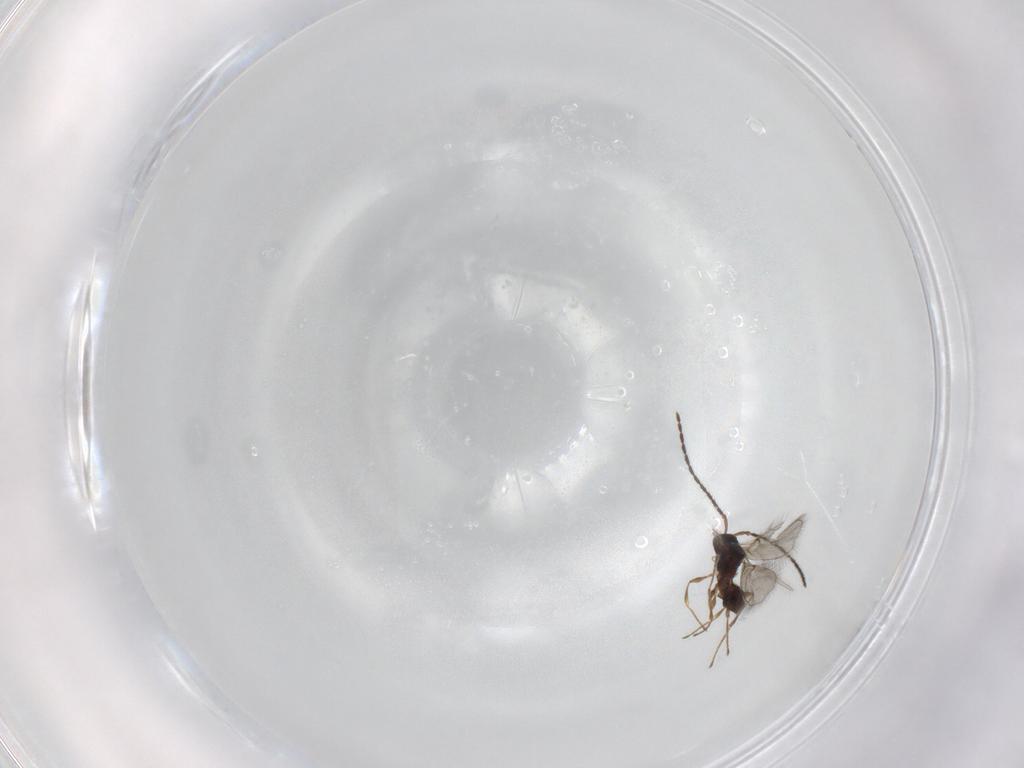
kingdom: Animalia
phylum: Arthropoda
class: Insecta
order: Hymenoptera
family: Diapriidae
